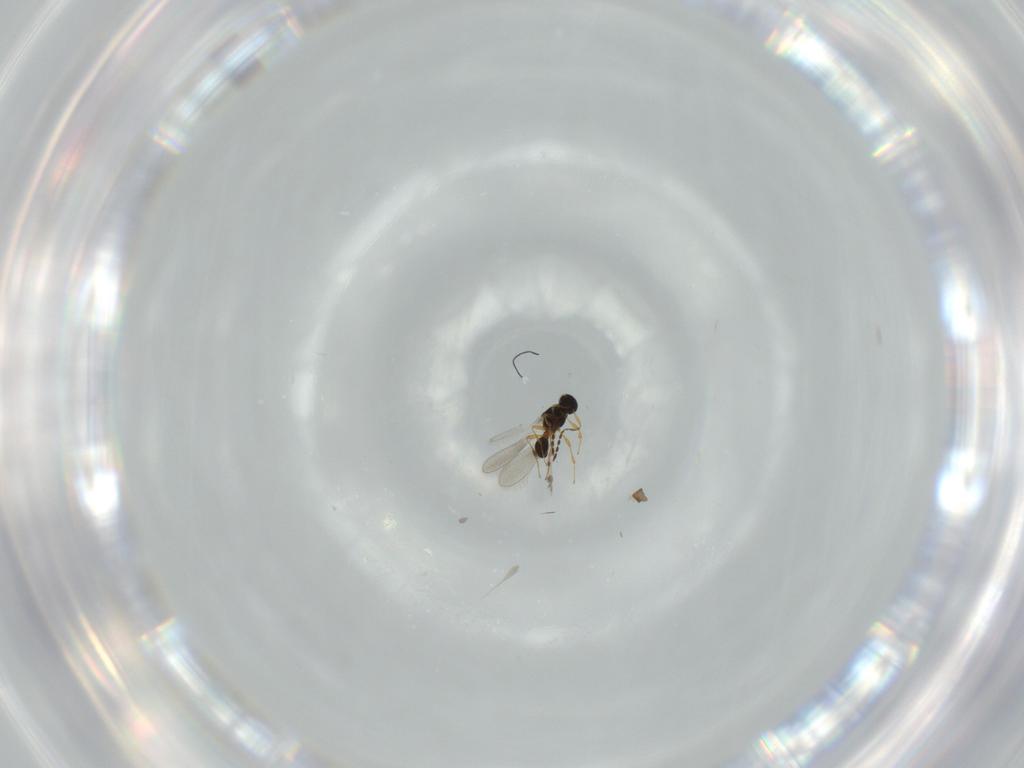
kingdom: Animalia
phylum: Arthropoda
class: Insecta
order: Hymenoptera
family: Platygastridae
